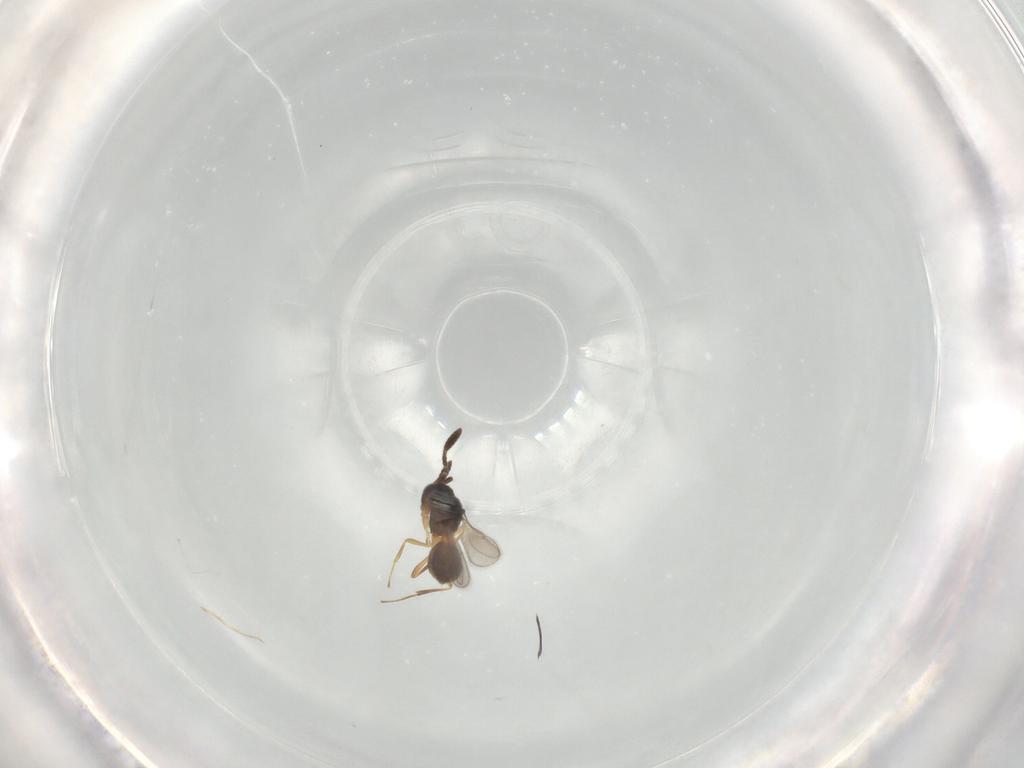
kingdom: Animalia
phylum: Arthropoda
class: Insecta
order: Hymenoptera
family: Scelionidae
